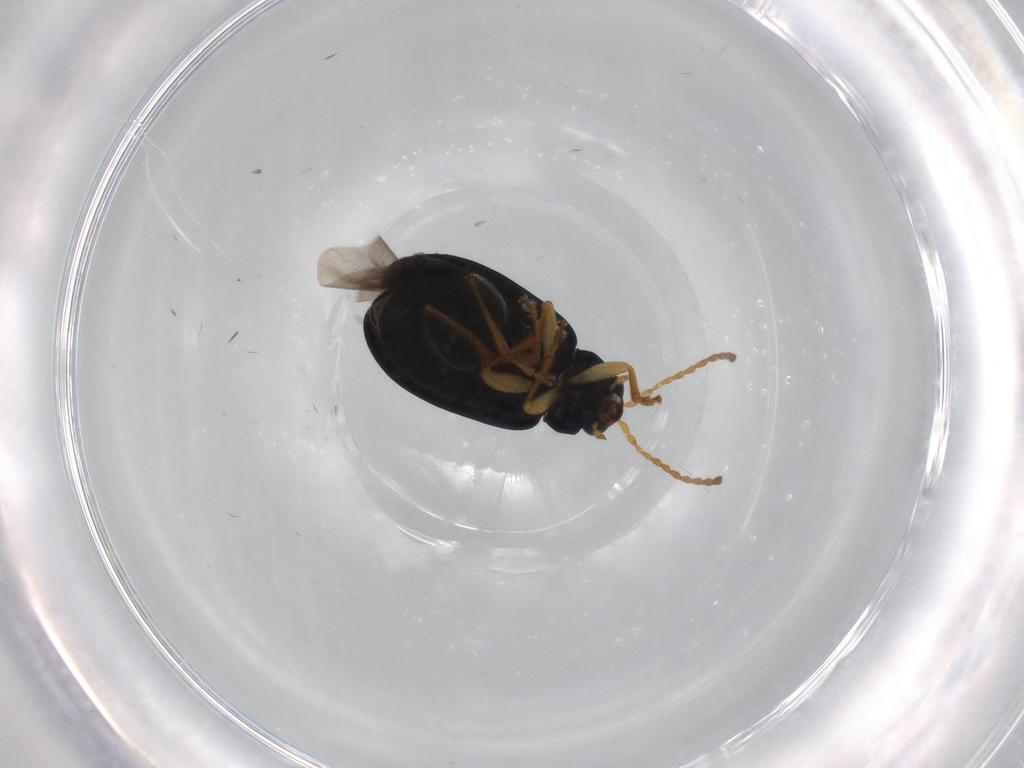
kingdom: Animalia
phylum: Arthropoda
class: Insecta
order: Coleoptera
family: Chrysomelidae
